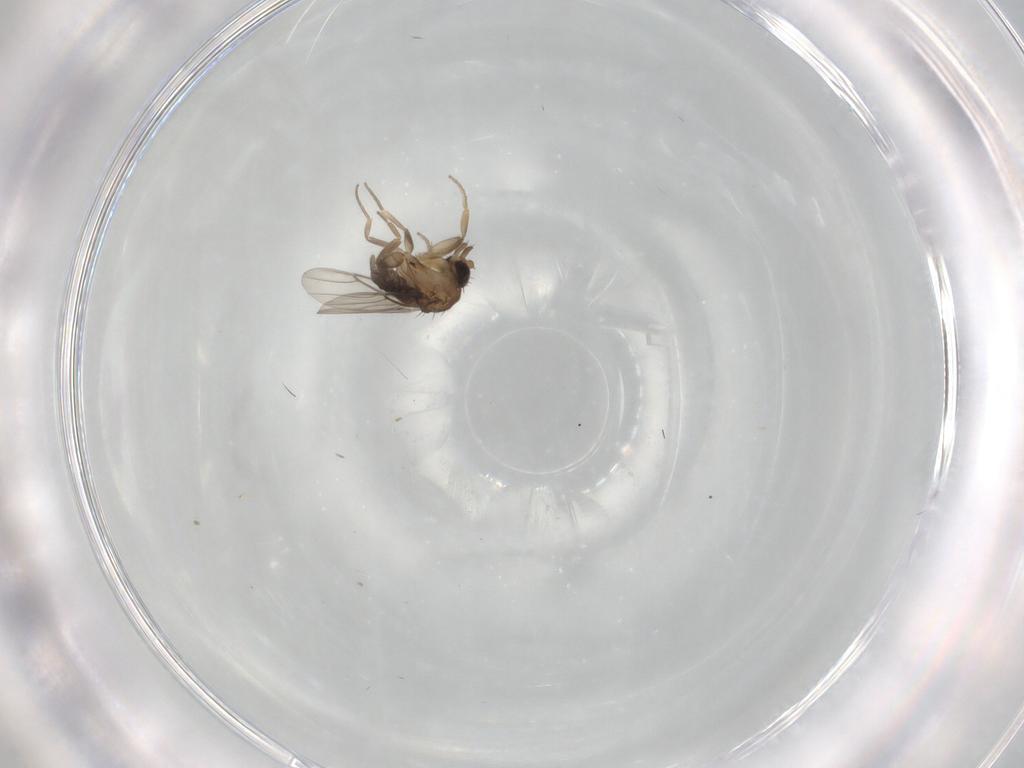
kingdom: Animalia
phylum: Arthropoda
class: Insecta
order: Diptera
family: Phoridae
